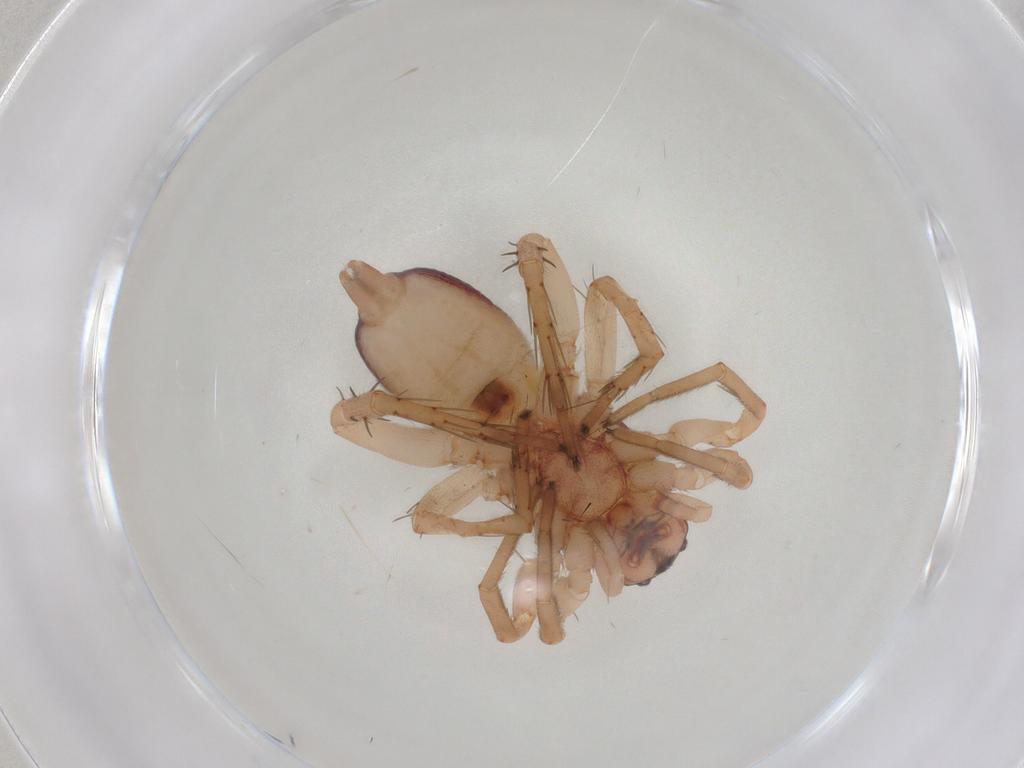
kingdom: Animalia
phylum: Arthropoda
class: Arachnida
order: Araneae
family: Clubionidae
